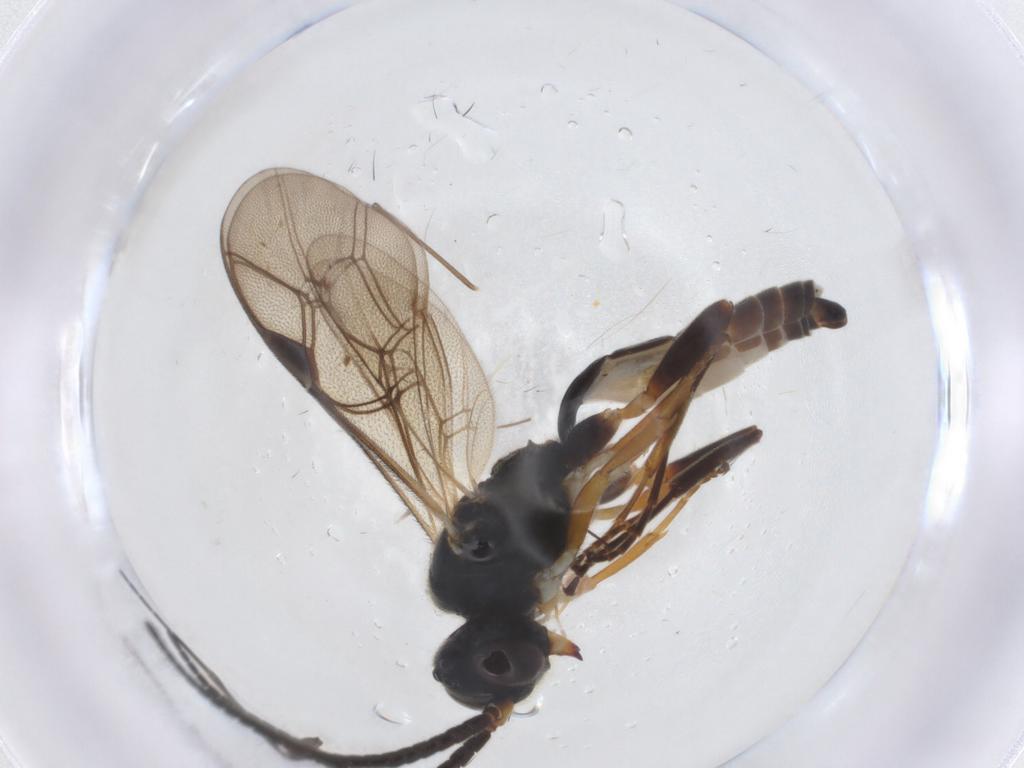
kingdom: Animalia
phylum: Arthropoda
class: Insecta
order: Hymenoptera
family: Ichneumonidae
